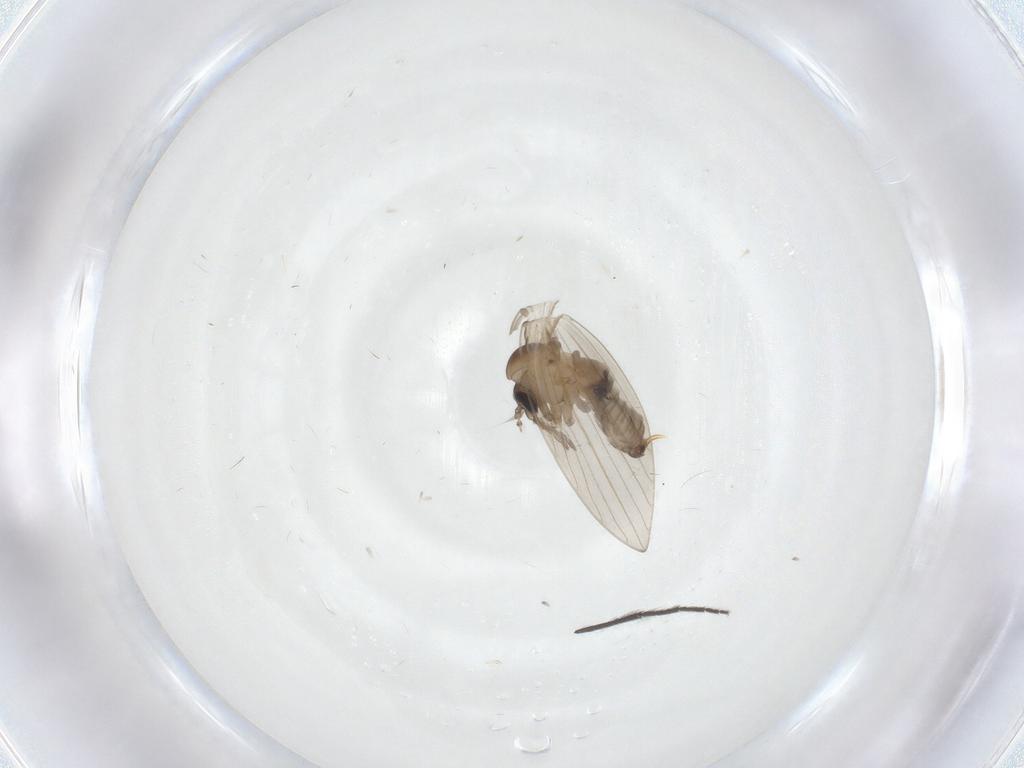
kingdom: Animalia
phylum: Arthropoda
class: Insecta
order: Diptera
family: Psychodidae
